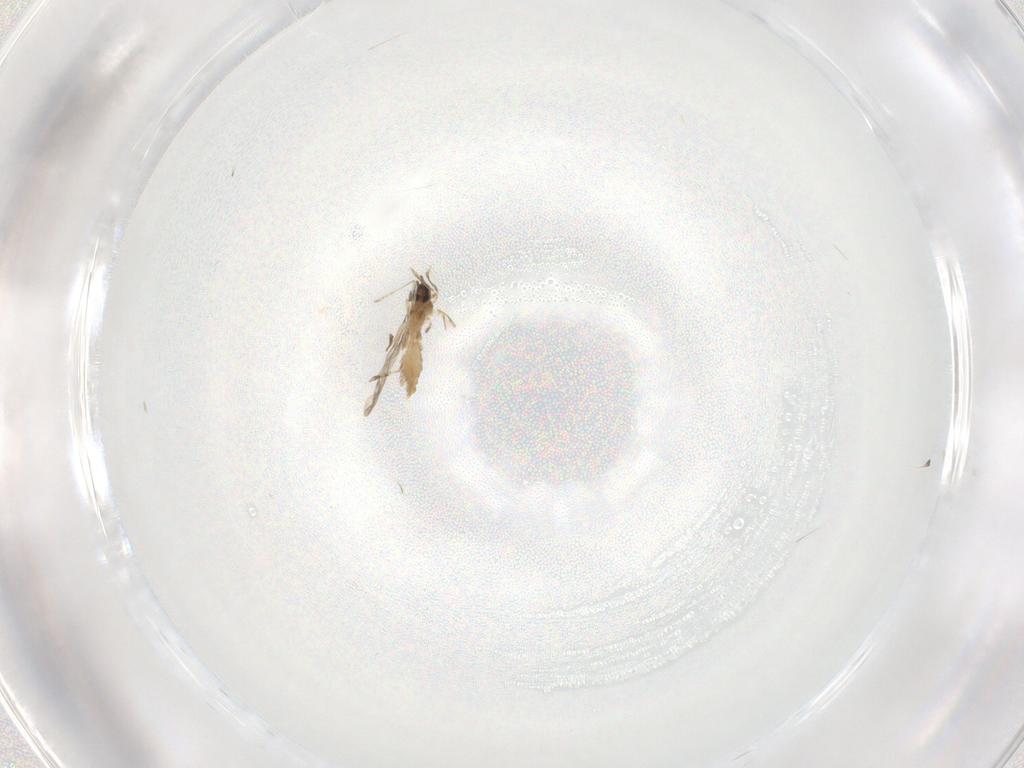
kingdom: Animalia
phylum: Arthropoda
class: Insecta
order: Diptera
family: Cecidomyiidae
